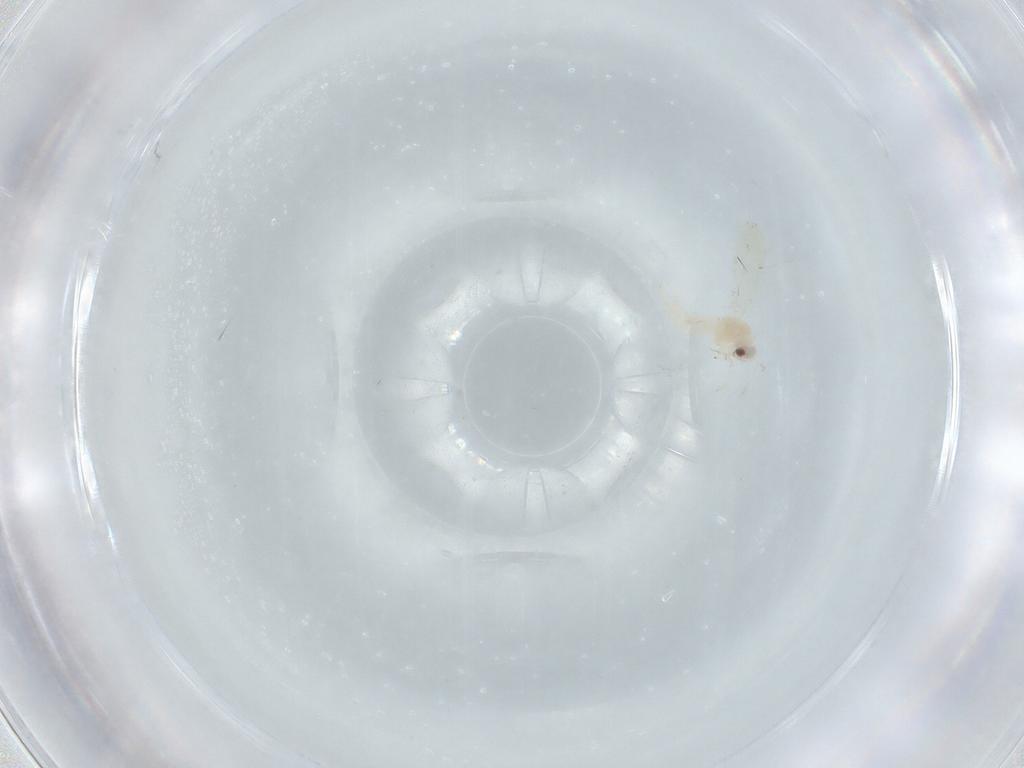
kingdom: Animalia
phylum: Arthropoda
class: Insecta
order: Hemiptera
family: Aleyrodidae
